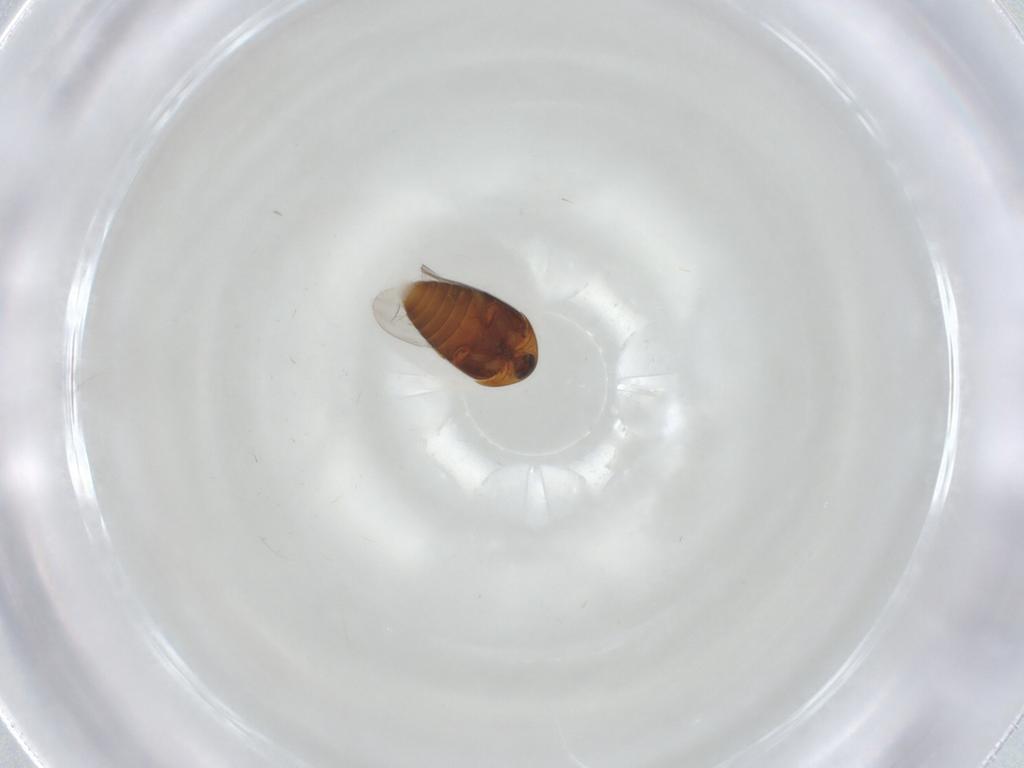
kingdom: Animalia
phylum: Arthropoda
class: Insecta
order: Coleoptera
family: Corylophidae
